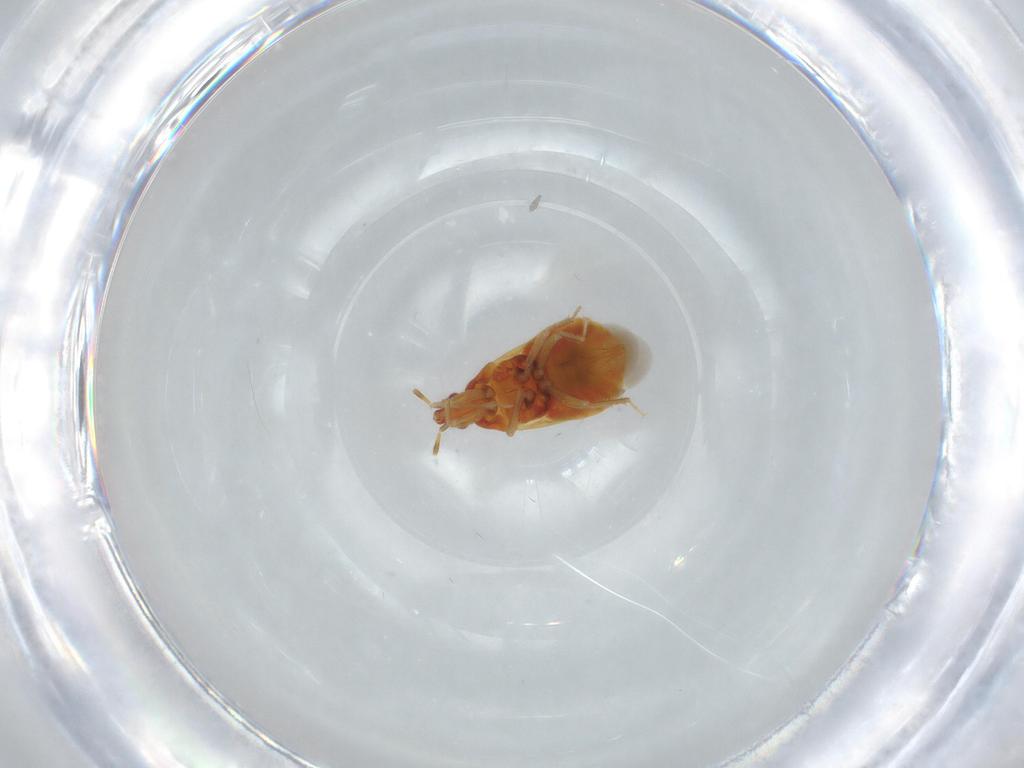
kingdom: Animalia
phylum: Arthropoda
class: Insecta
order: Hemiptera
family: Lasiochilidae
